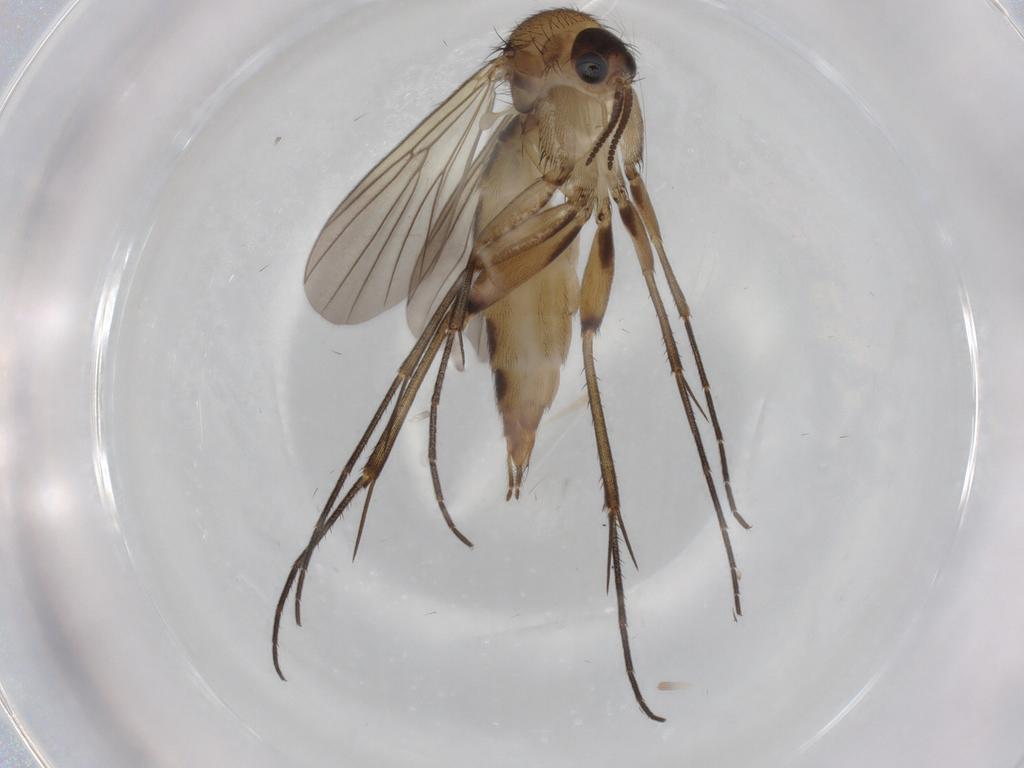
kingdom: Animalia
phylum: Arthropoda
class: Insecta
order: Diptera
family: Mycetophilidae
